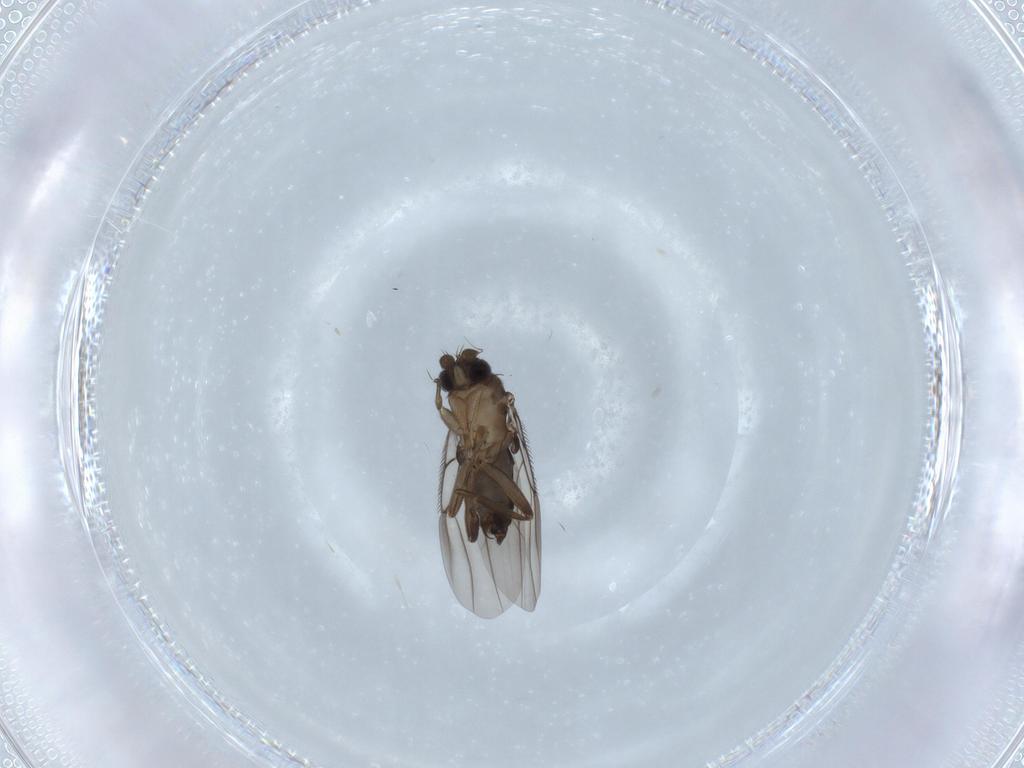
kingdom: Animalia
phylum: Arthropoda
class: Insecta
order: Diptera
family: Phoridae
